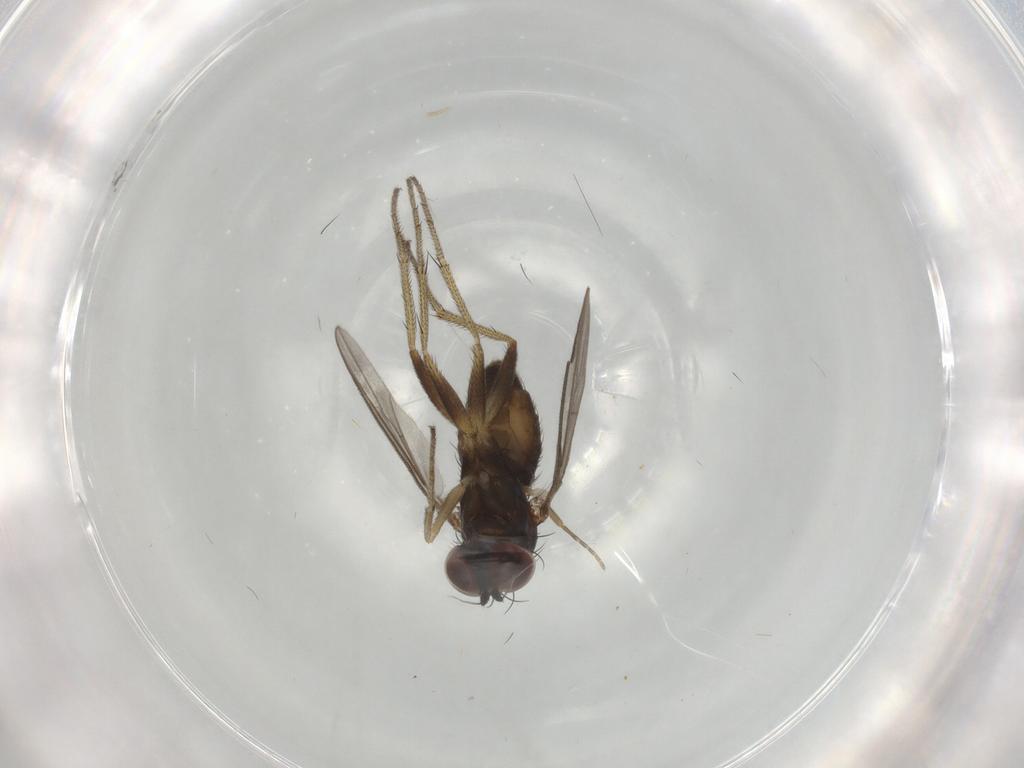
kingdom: Animalia
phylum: Arthropoda
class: Insecta
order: Diptera
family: Chironomidae
